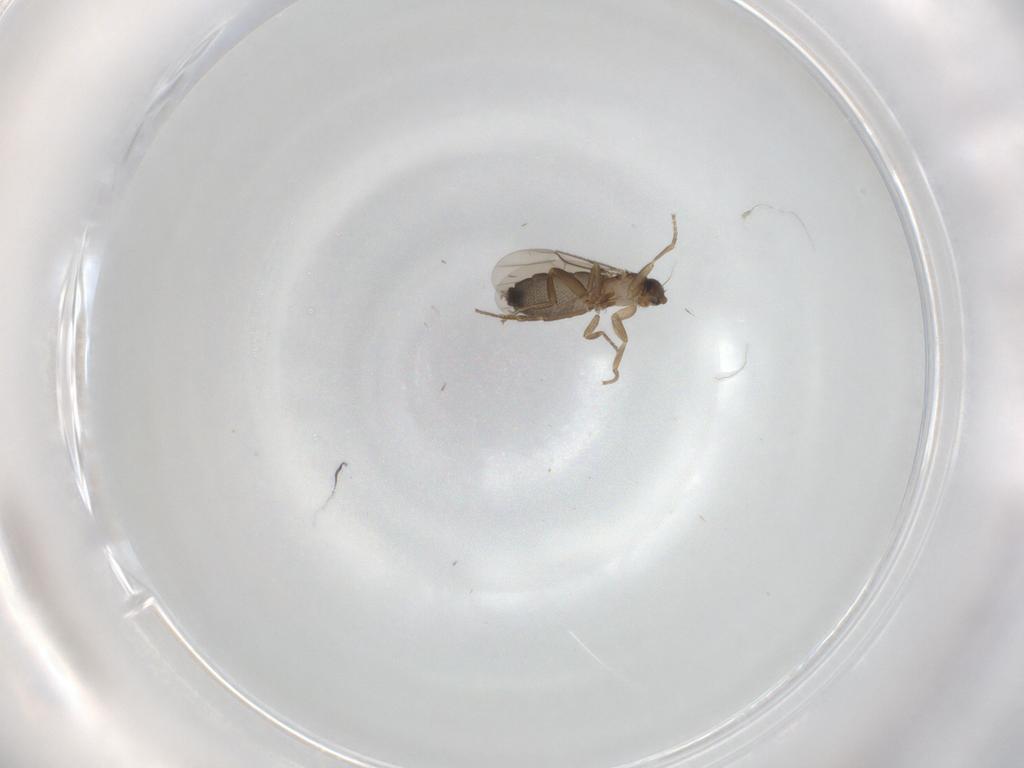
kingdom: Animalia
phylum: Arthropoda
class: Insecta
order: Diptera
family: Phoridae
